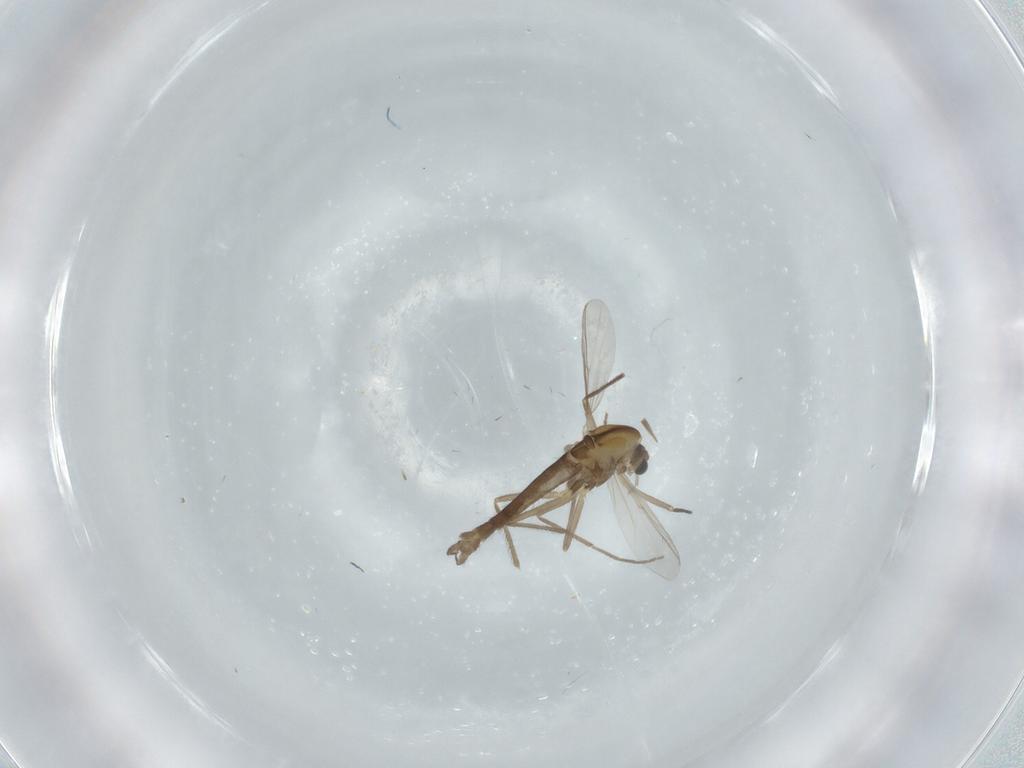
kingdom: Animalia
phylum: Arthropoda
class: Insecta
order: Diptera
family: Chironomidae
